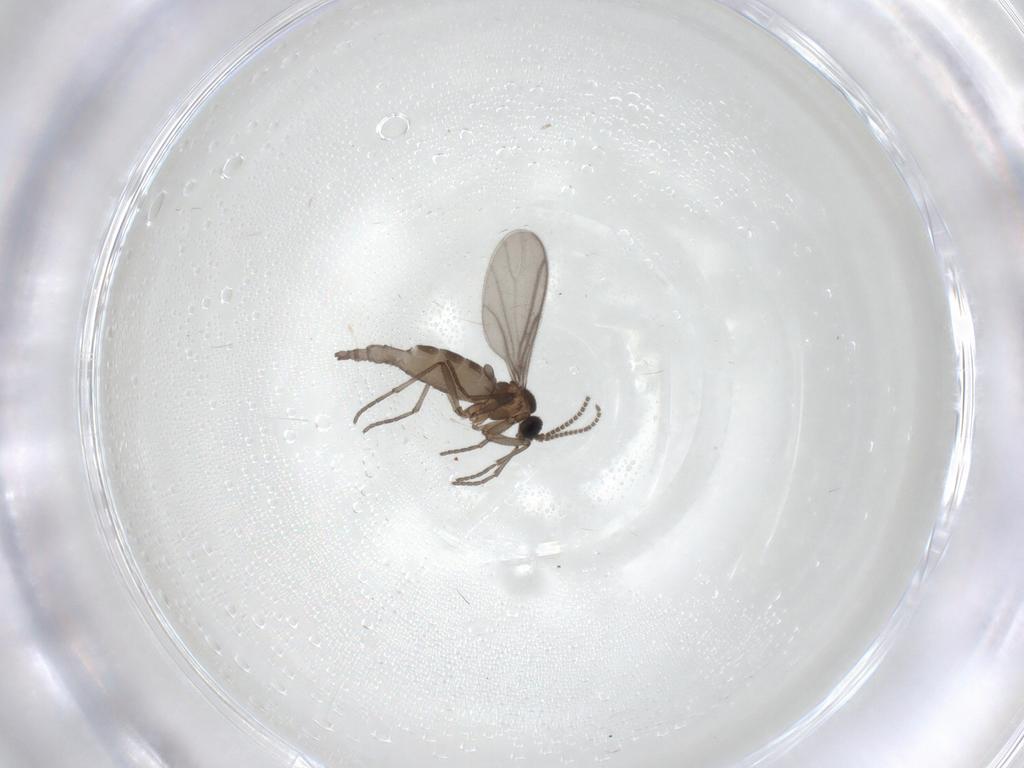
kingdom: Animalia
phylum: Arthropoda
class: Insecta
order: Diptera
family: Sciaridae
